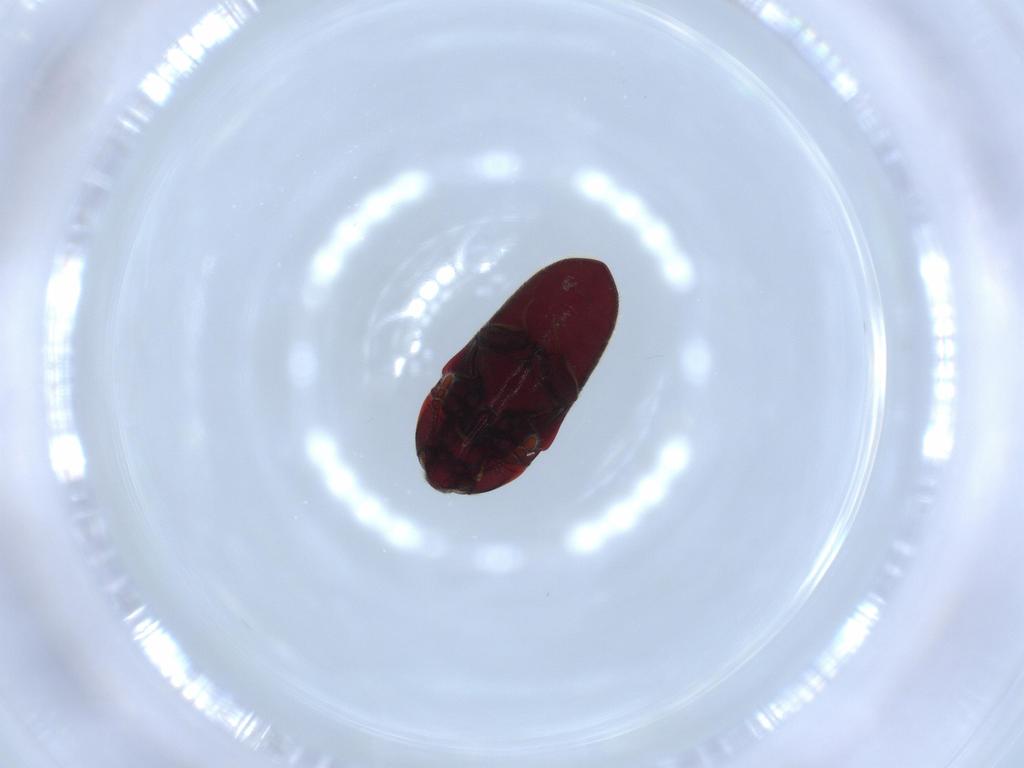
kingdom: Animalia
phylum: Arthropoda
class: Insecta
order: Coleoptera
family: Throscidae
